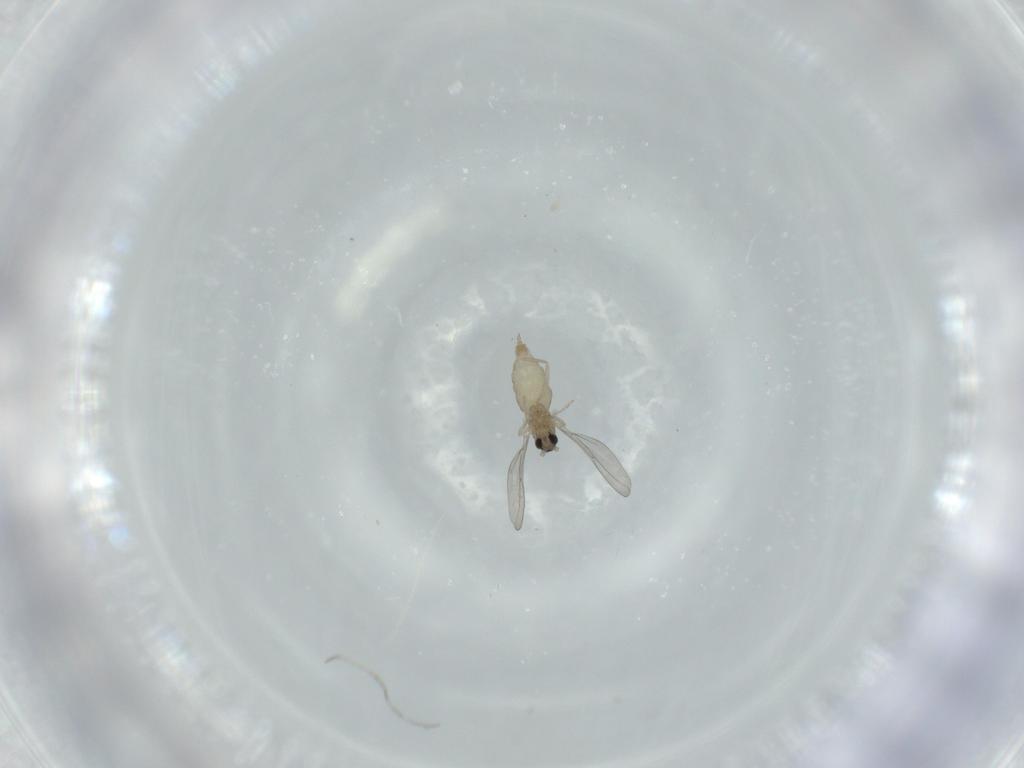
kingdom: Animalia
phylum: Arthropoda
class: Insecta
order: Diptera
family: Cecidomyiidae
